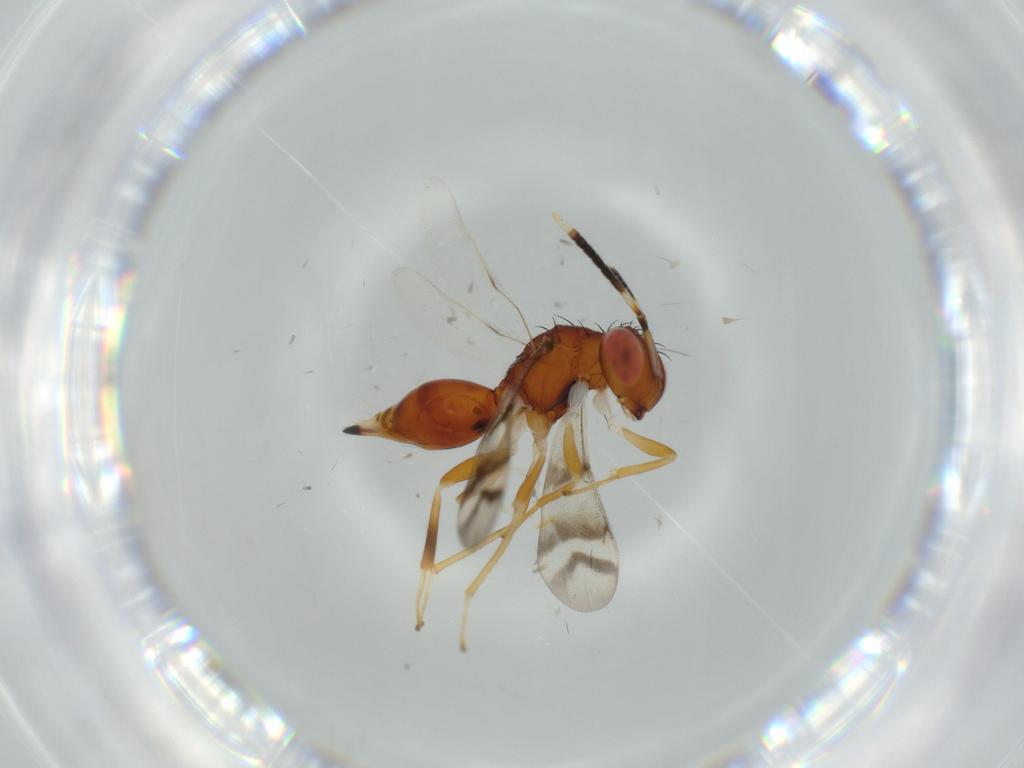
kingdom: Animalia
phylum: Arthropoda
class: Insecta
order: Hymenoptera
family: Diparidae
